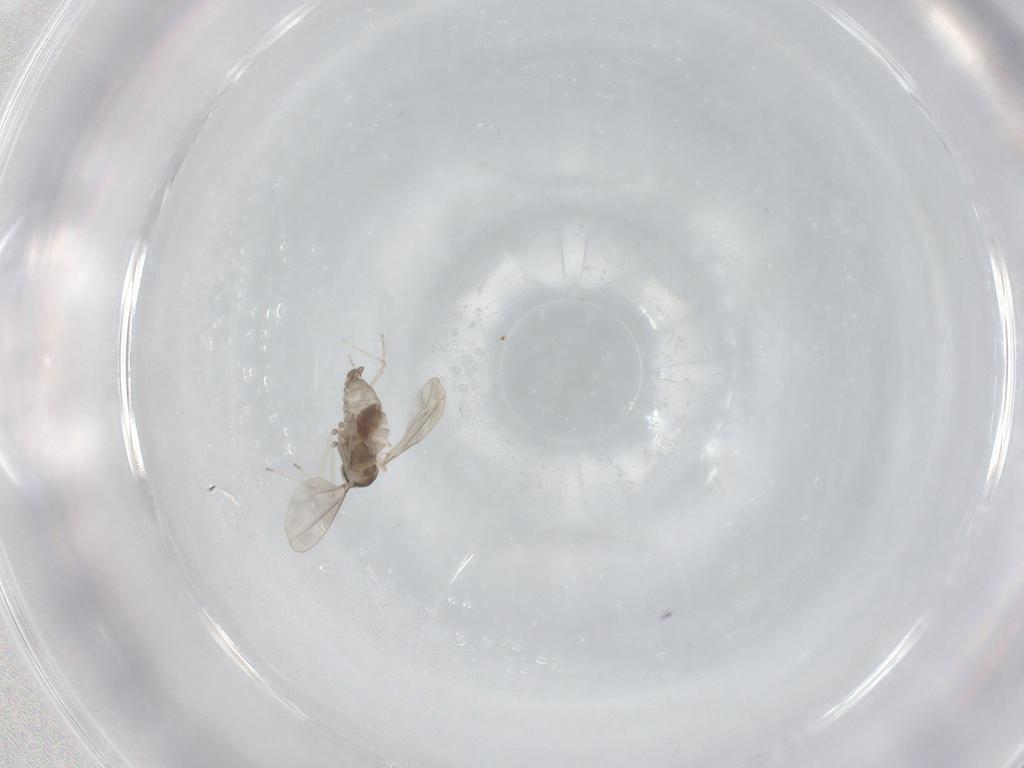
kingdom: Animalia
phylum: Arthropoda
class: Insecta
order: Diptera
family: Chironomidae
